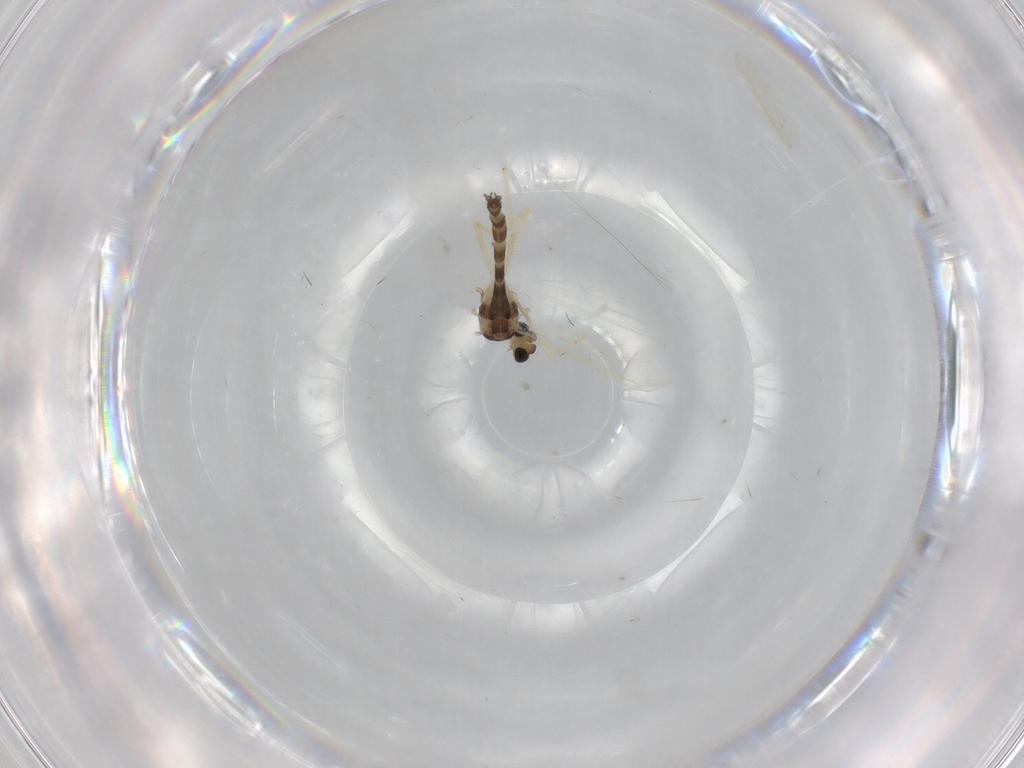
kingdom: Animalia
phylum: Arthropoda
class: Insecta
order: Diptera
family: Chironomidae
